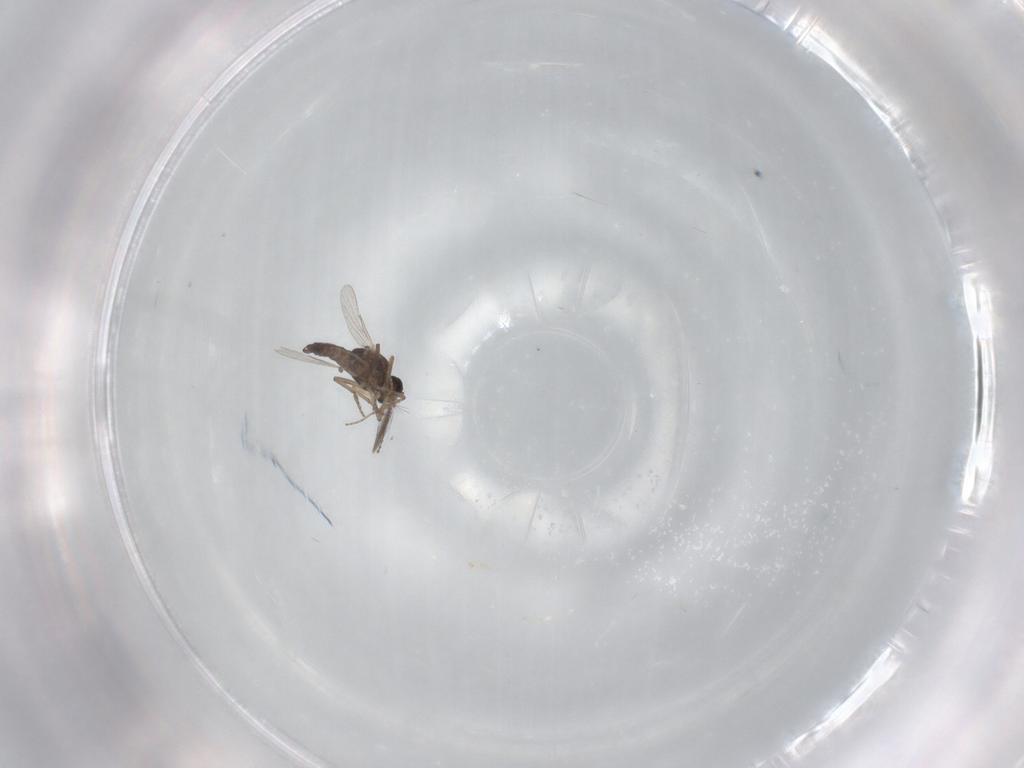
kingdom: Animalia
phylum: Arthropoda
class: Insecta
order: Diptera
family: Ceratopogonidae
